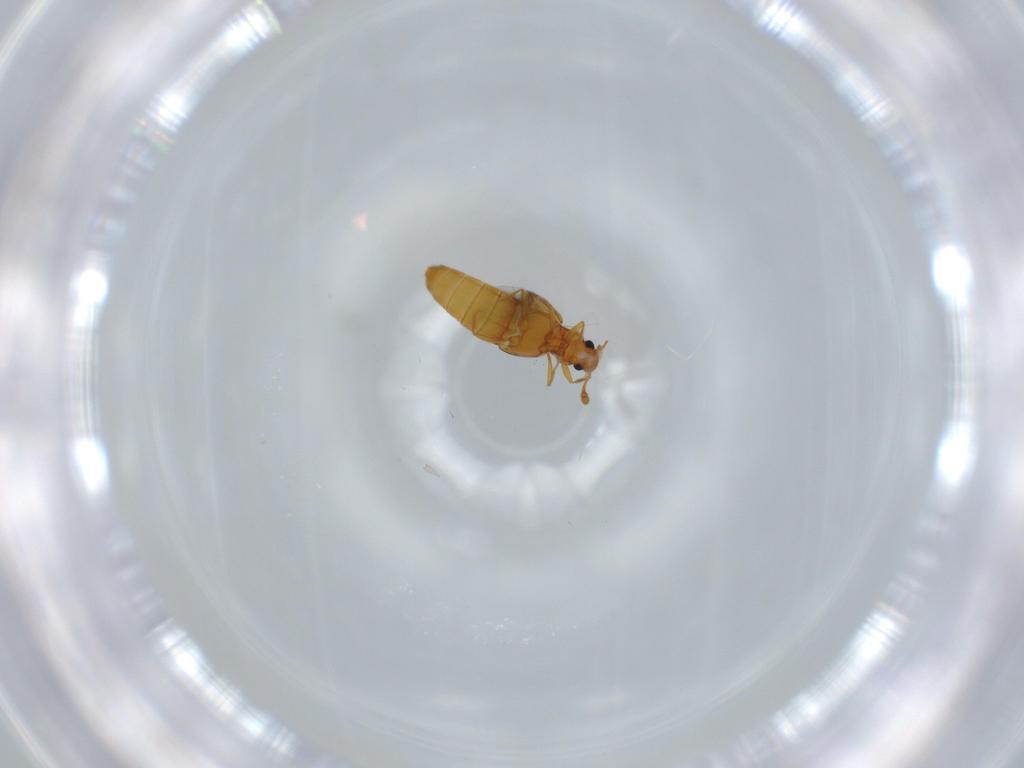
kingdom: Animalia
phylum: Arthropoda
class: Insecta
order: Coleoptera
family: Staphylinidae
